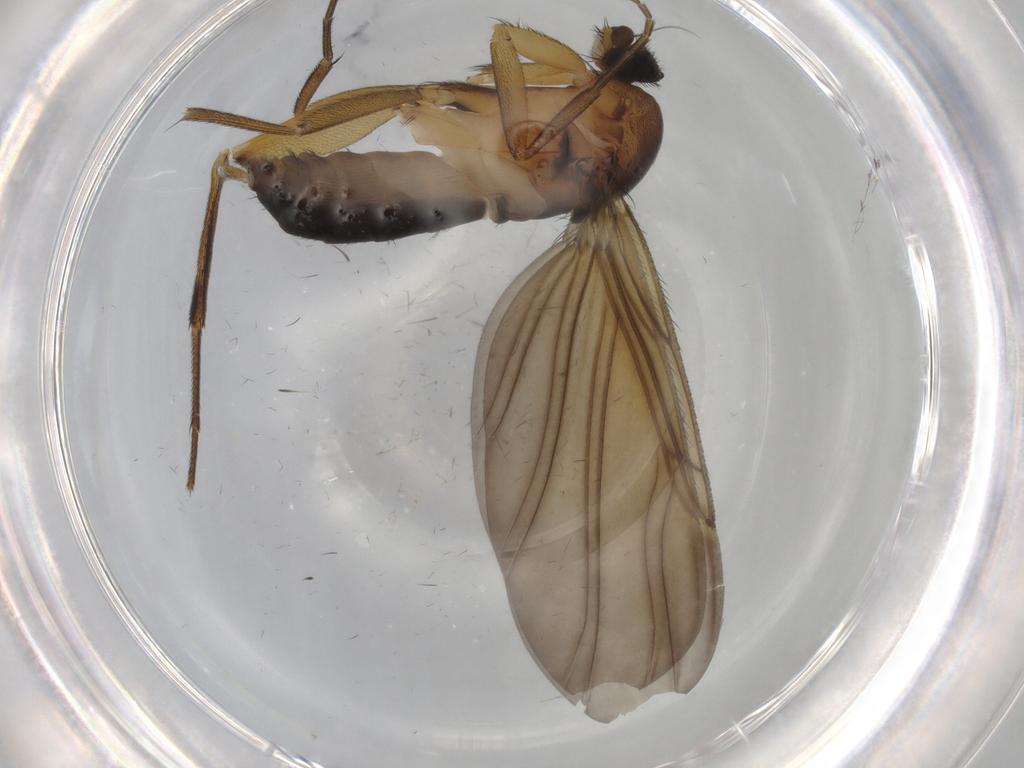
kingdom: Animalia
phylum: Arthropoda
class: Insecta
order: Diptera
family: Phoridae
